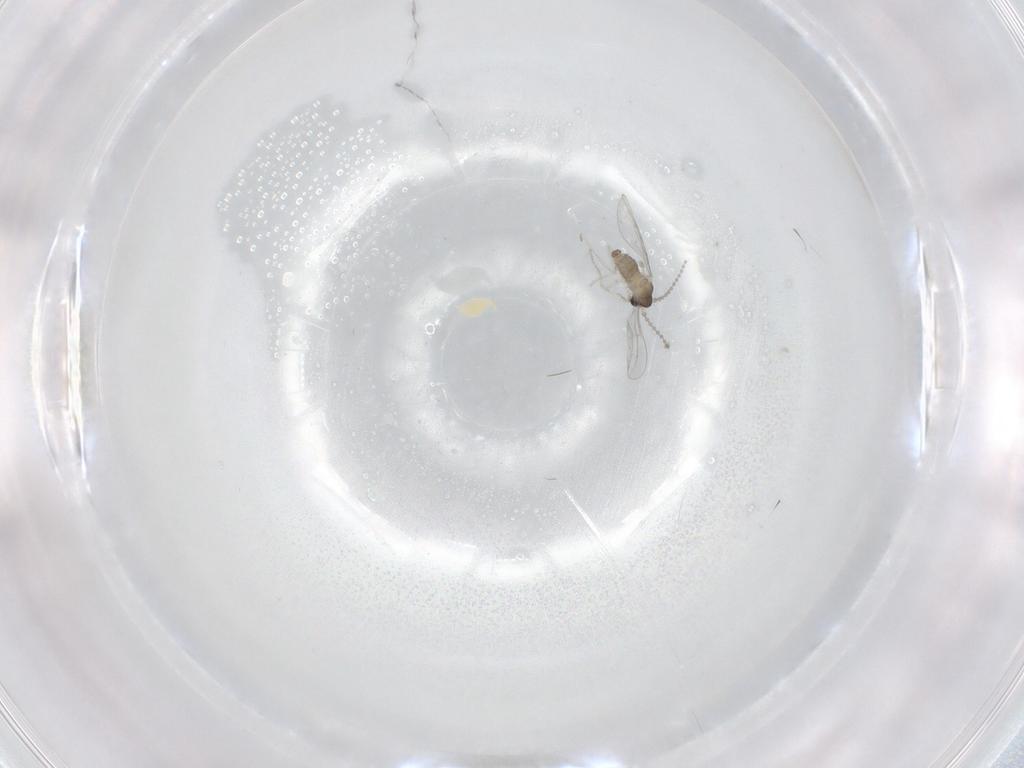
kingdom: Animalia
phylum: Arthropoda
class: Insecta
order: Diptera
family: Cecidomyiidae
